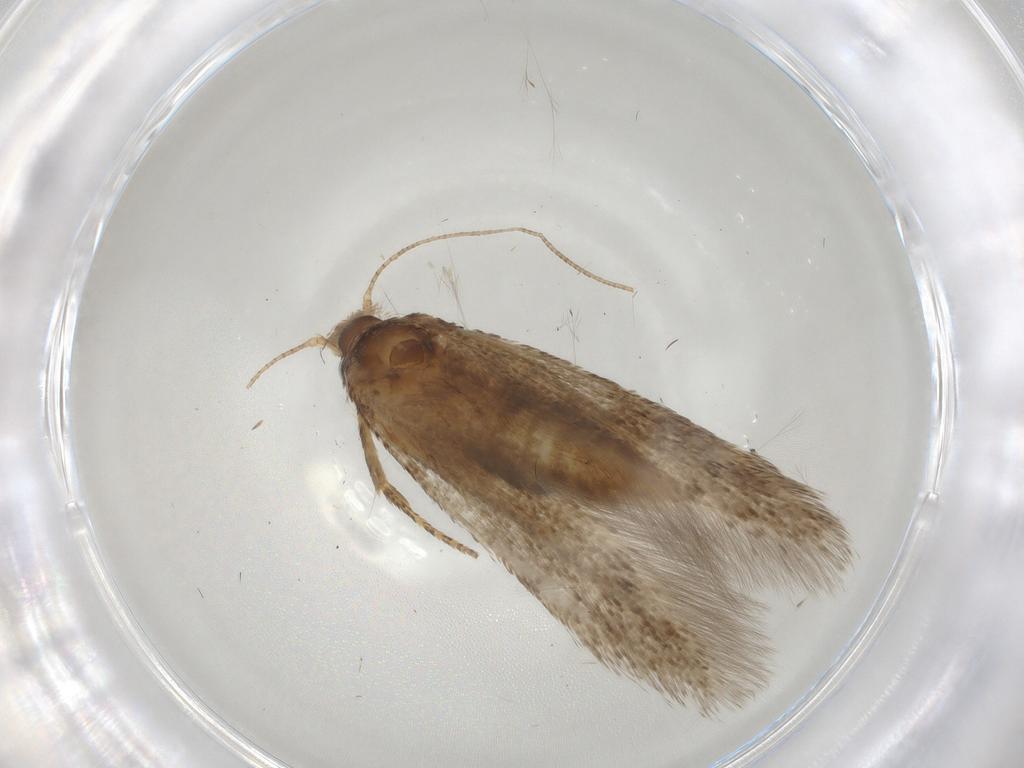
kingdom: Animalia
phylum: Arthropoda
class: Insecta
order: Lepidoptera
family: Coleophoridae
